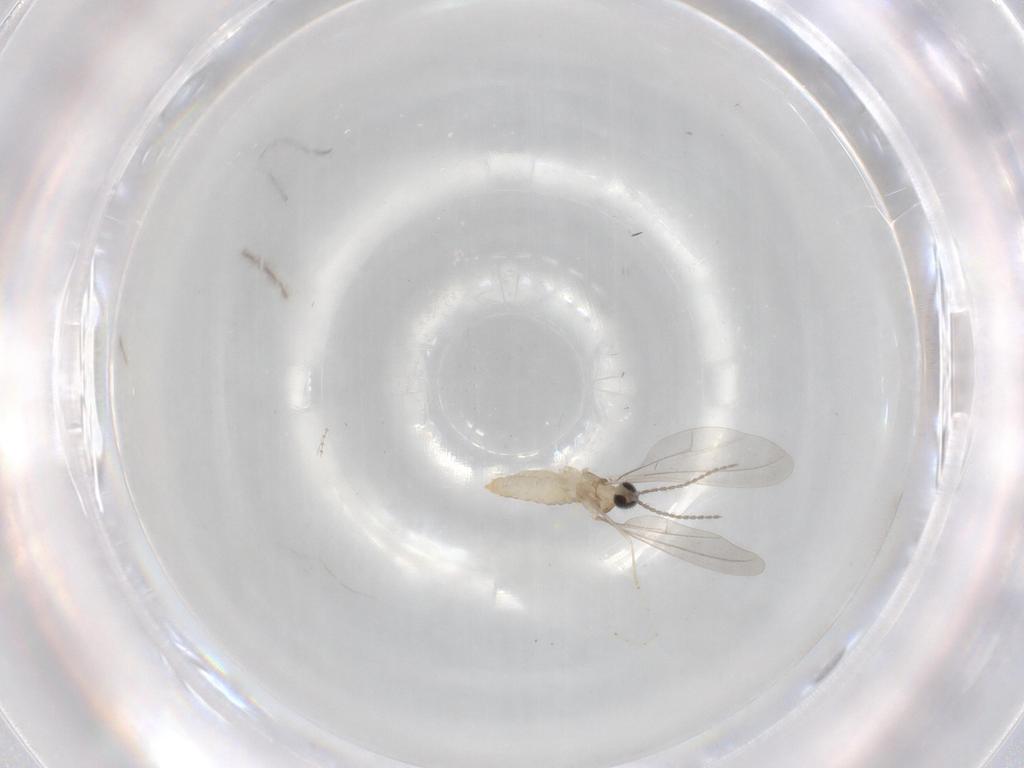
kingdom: Animalia
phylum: Arthropoda
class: Insecta
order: Diptera
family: Cecidomyiidae
